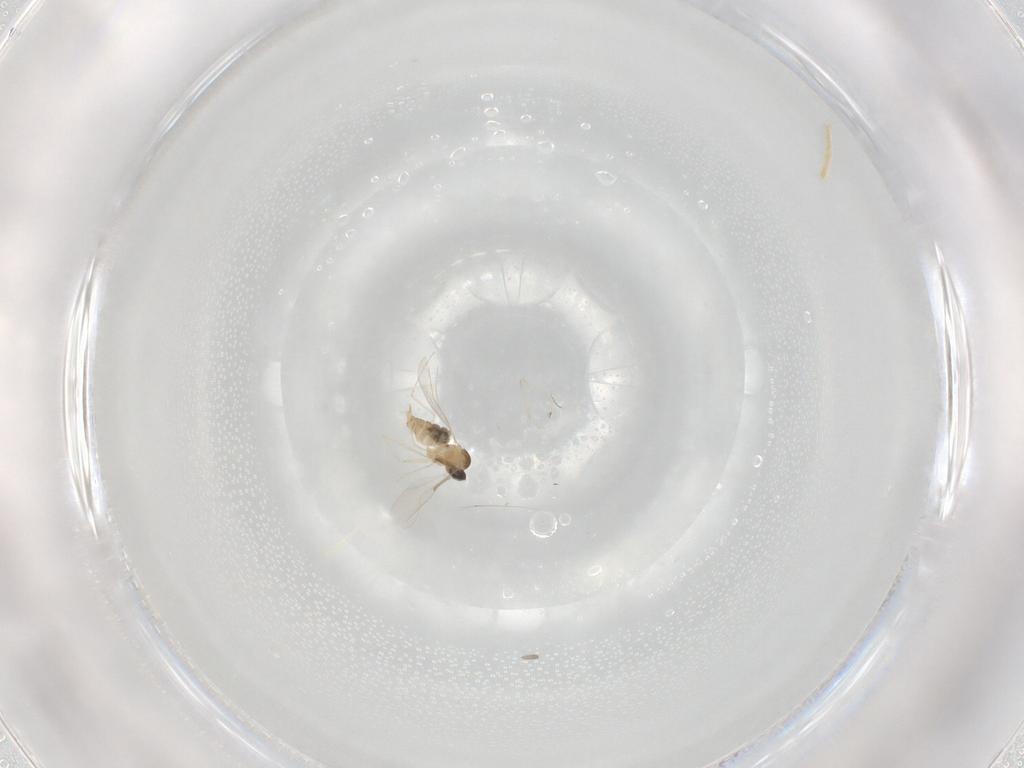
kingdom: Animalia
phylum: Arthropoda
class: Insecta
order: Diptera
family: Cecidomyiidae
